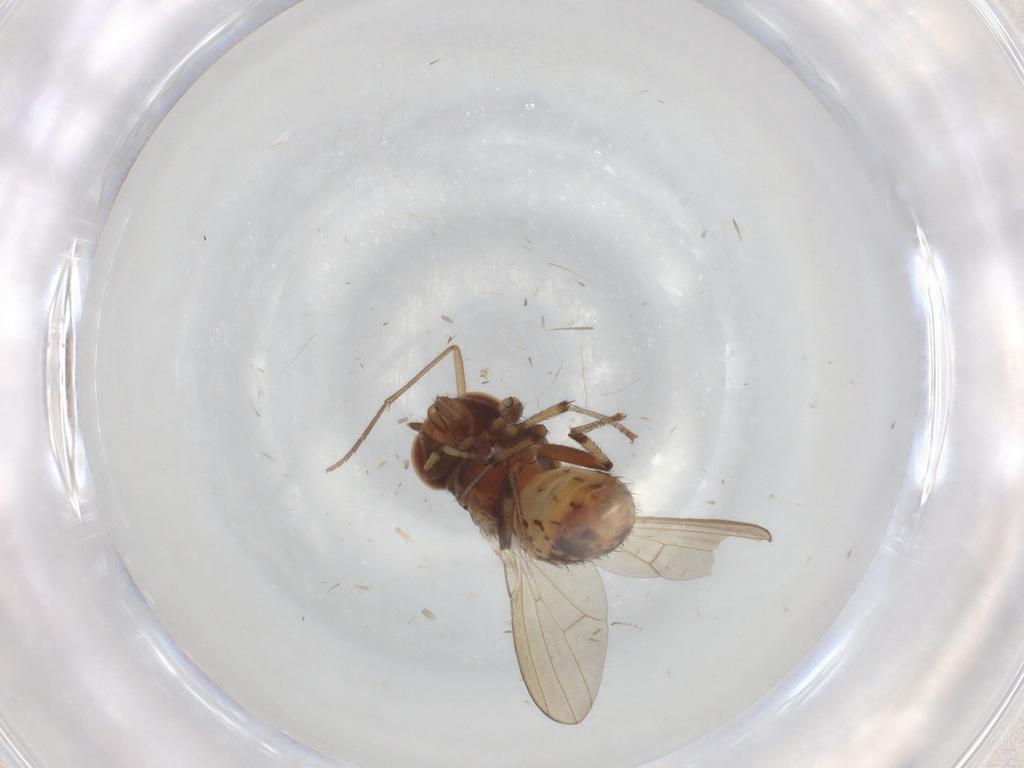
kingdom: Animalia
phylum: Arthropoda
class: Insecta
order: Diptera
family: Sciaridae
